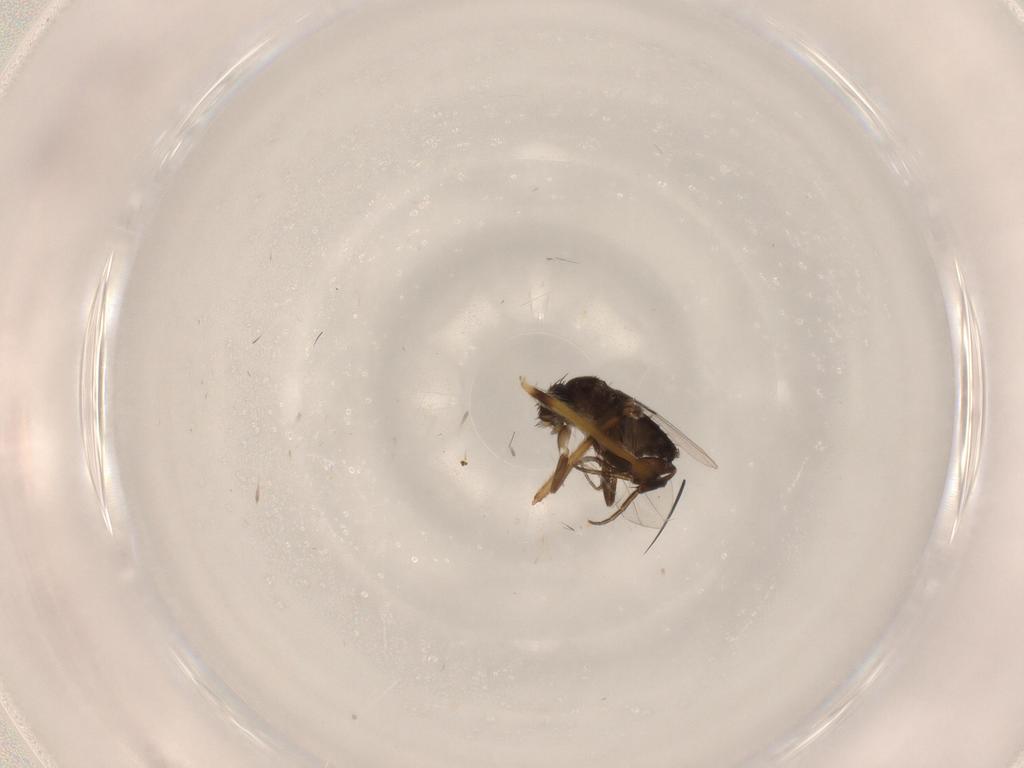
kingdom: Animalia
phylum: Arthropoda
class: Insecta
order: Diptera
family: Phoridae
